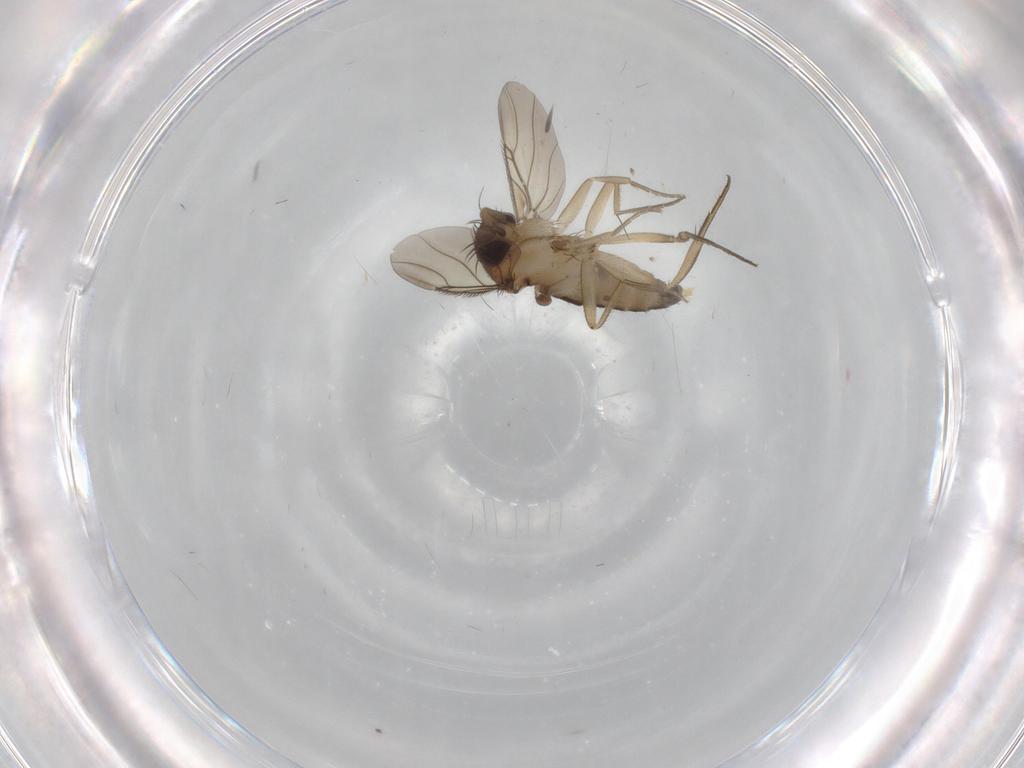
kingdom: Animalia
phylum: Arthropoda
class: Insecta
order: Diptera
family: Phoridae
